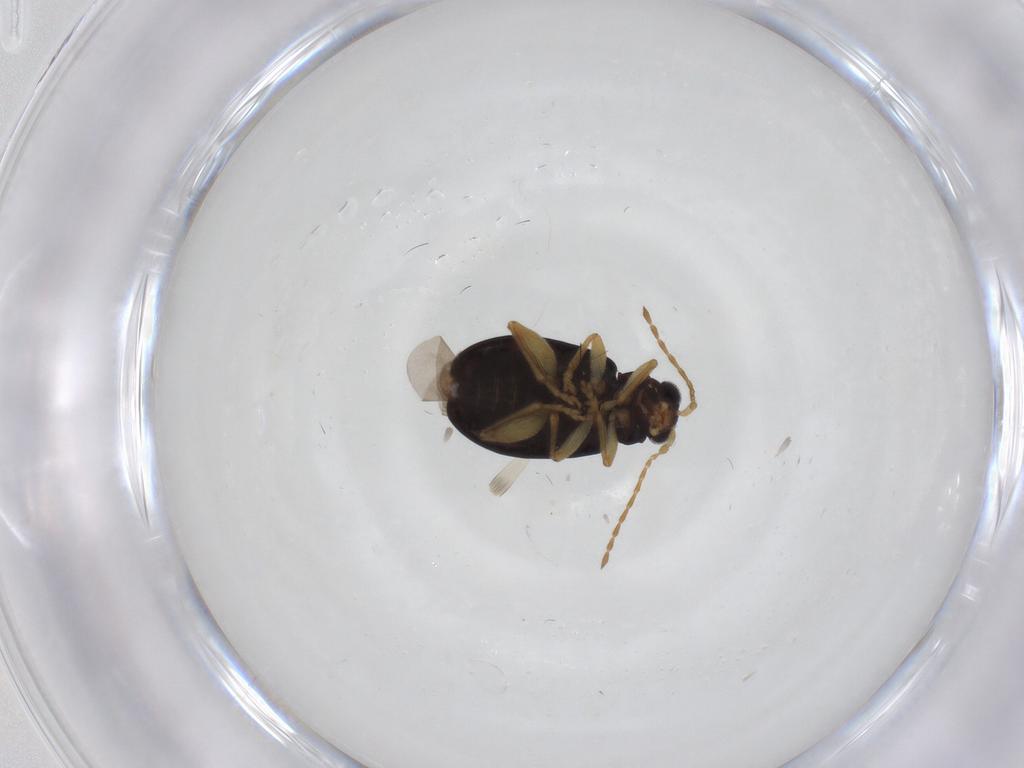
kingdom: Animalia
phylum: Arthropoda
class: Insecta
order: Coleoptera
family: Chrysomelidae
